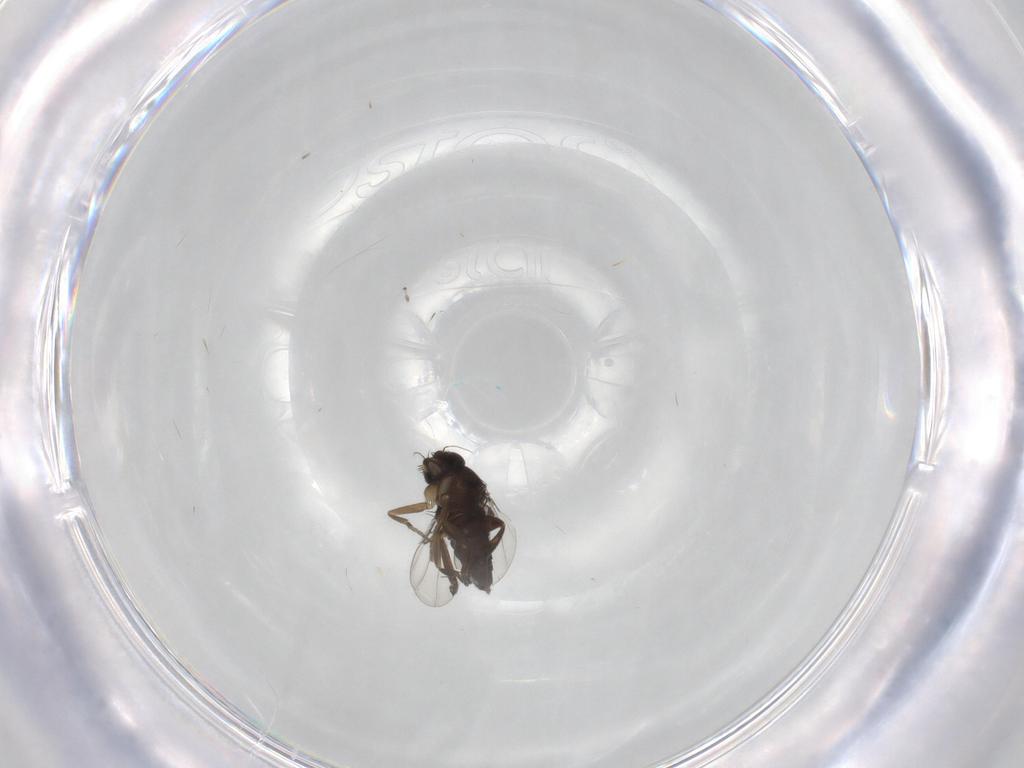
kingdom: Animalia
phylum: Arthropoda
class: Insecta
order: Diptera
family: Phoridae
